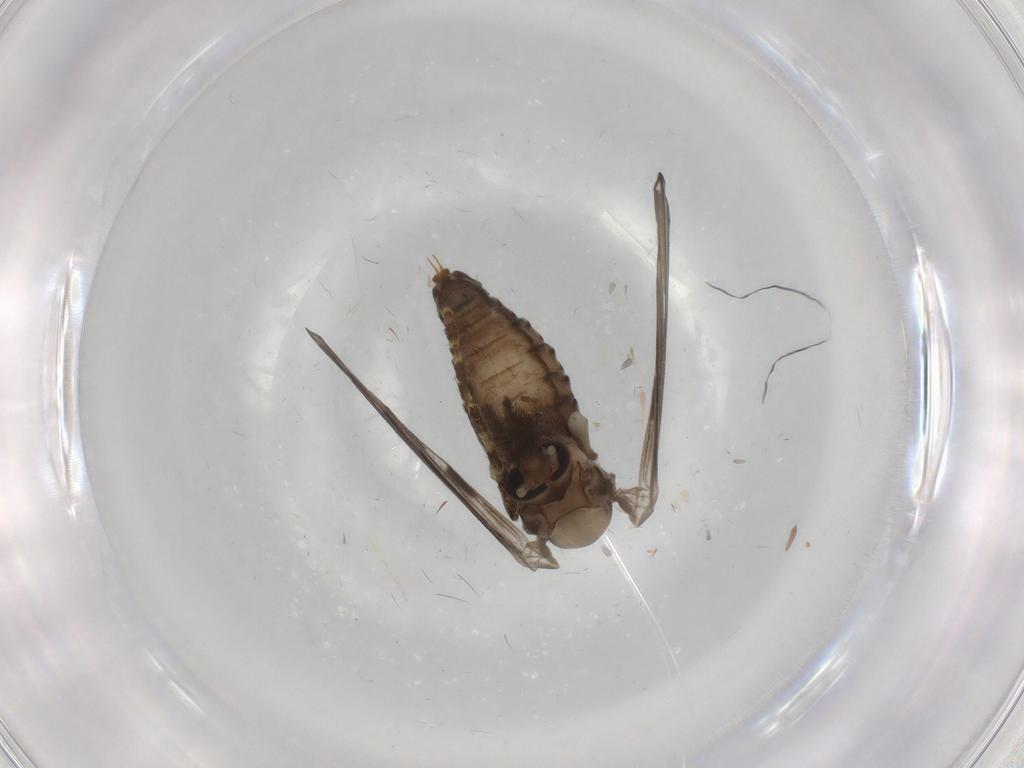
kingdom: Animalia
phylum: Arthropoda
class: Insecta
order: Diptera
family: Psychodidae
